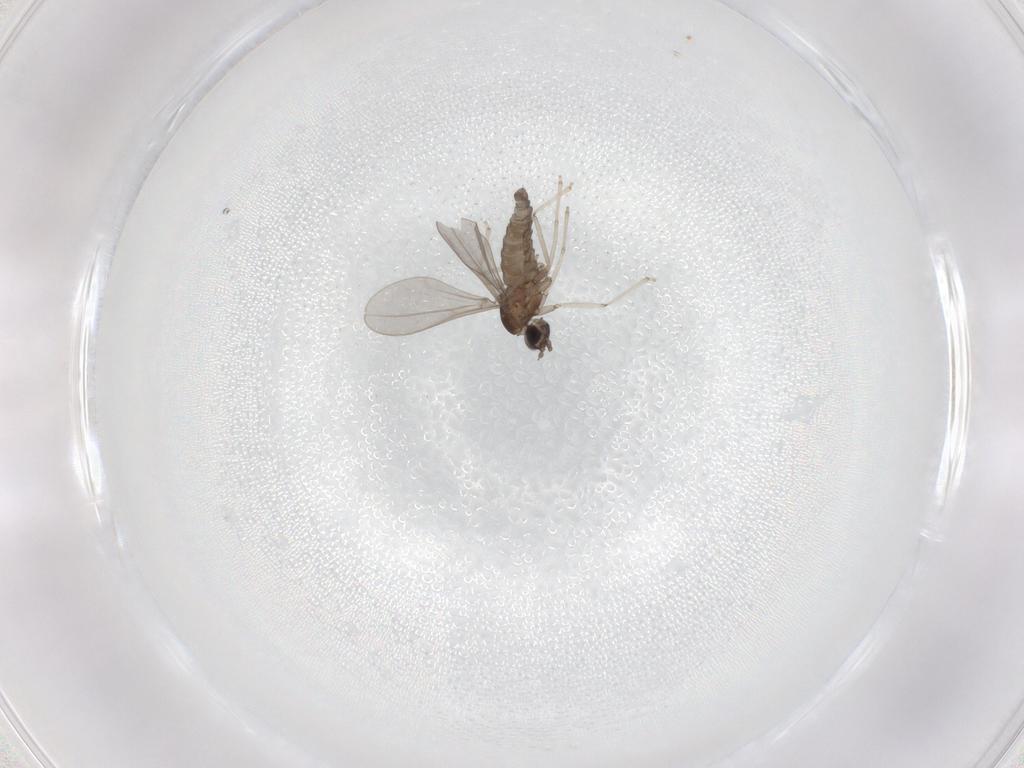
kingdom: Animalia
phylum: Arthropoda
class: Insecta
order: Diptera
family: Cecidomyiidae
